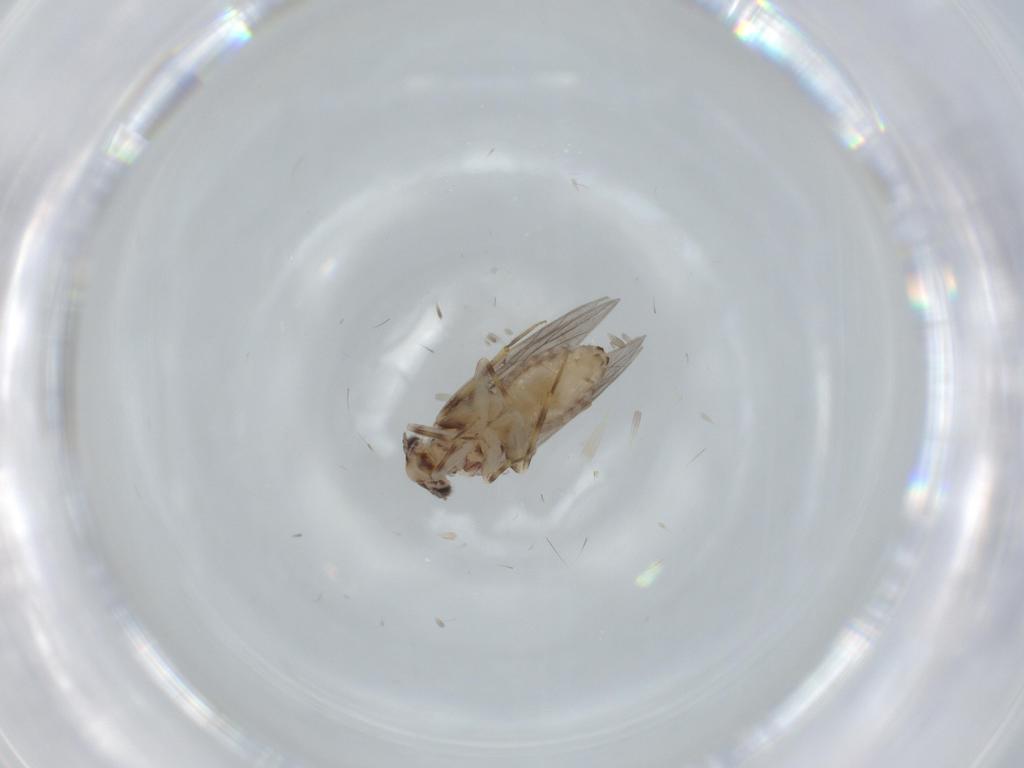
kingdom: Animalia
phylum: Arthropoda
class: Insecta
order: Psocodea
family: Lepidopsocidae
